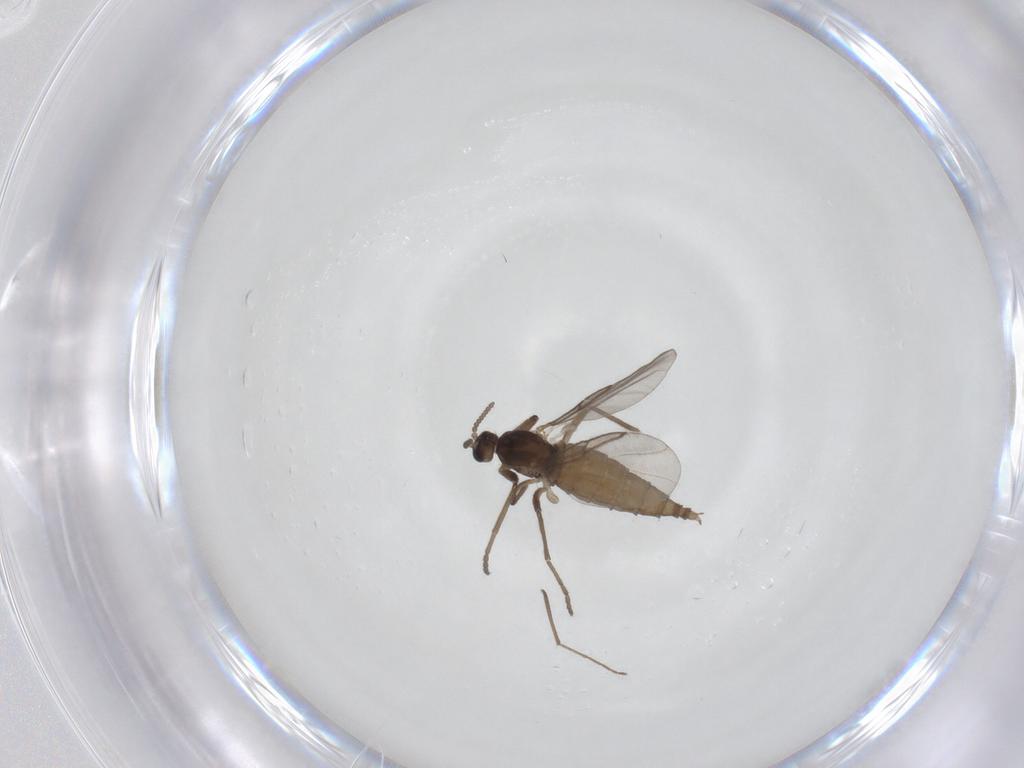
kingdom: Animalia
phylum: Arthropoda
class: Insecta
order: Diptera
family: Cecidomyiidae
